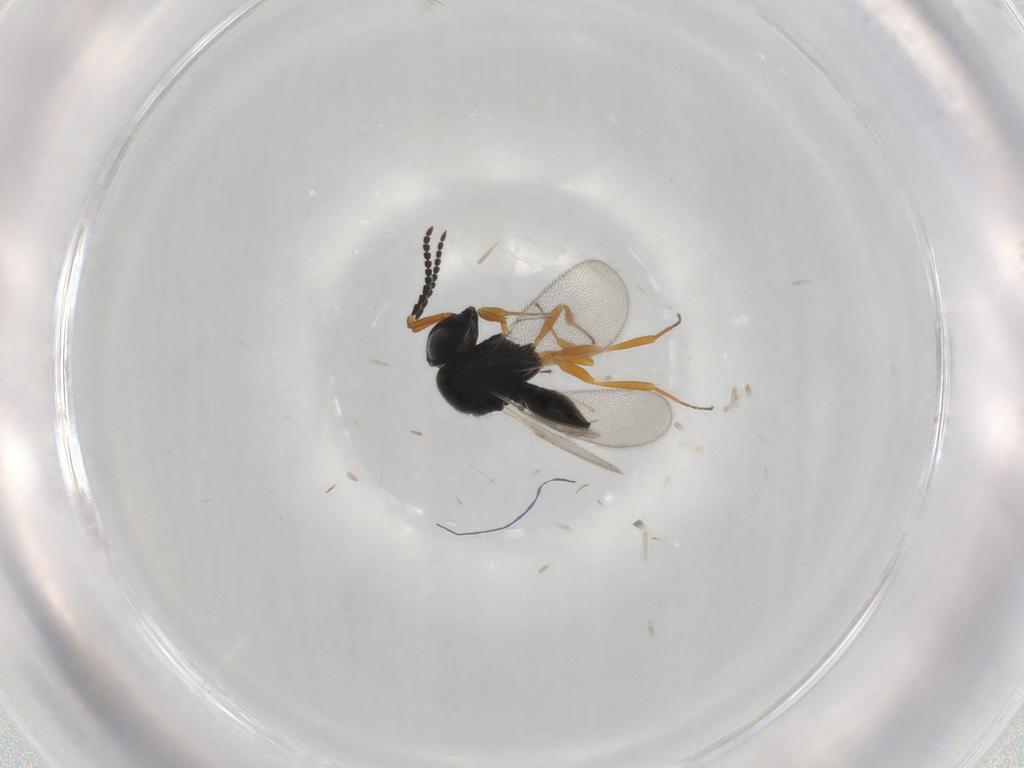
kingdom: Animalia
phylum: Arthropoda
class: Insecta
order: Hymenoptera
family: Scelionidae
